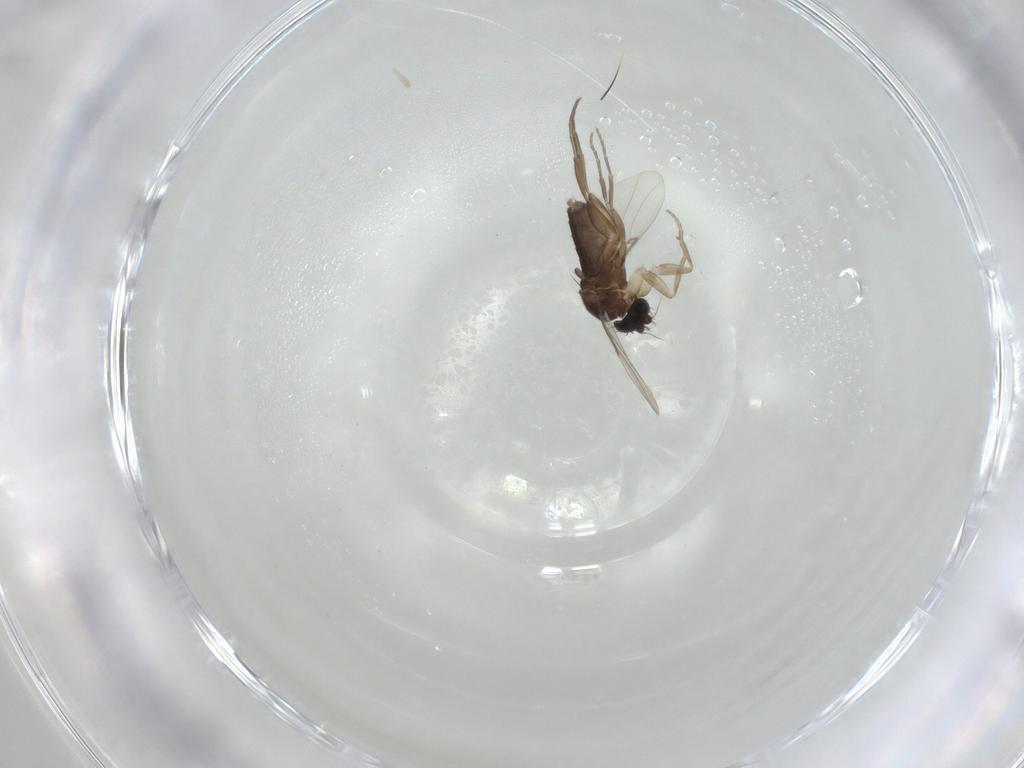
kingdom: Animalia
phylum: Arthropoda
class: Insecta
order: Diptera
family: Phoridae
